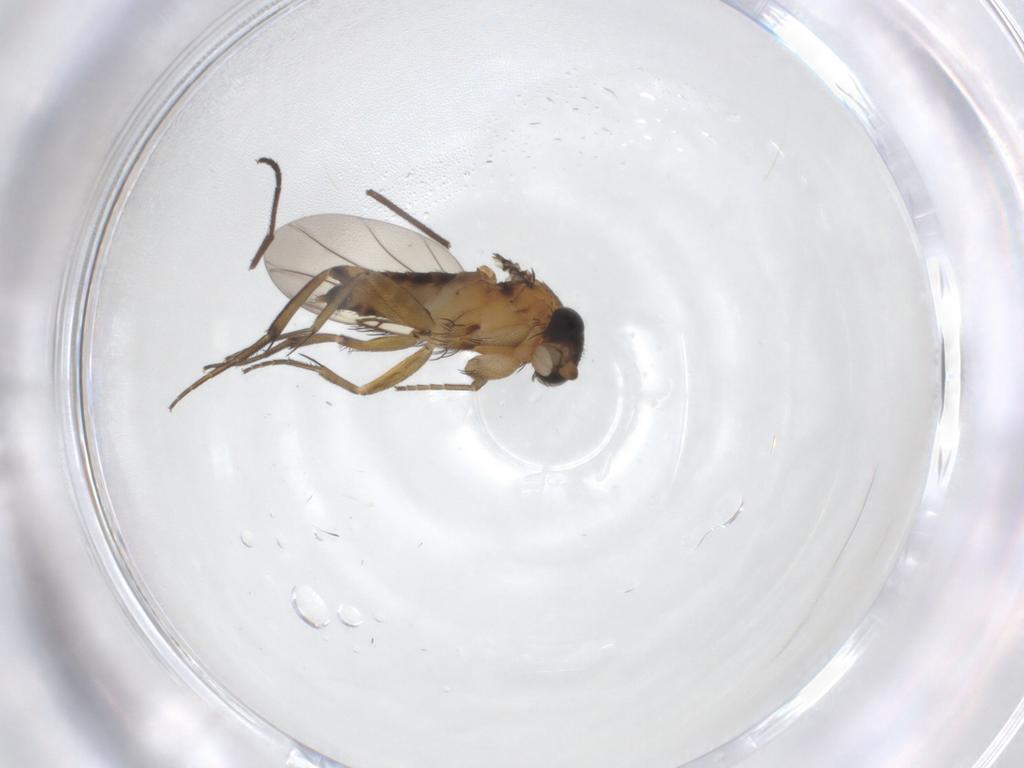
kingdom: Animalia
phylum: Arthropoda
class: Insecta
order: Diptera
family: Phoridae
